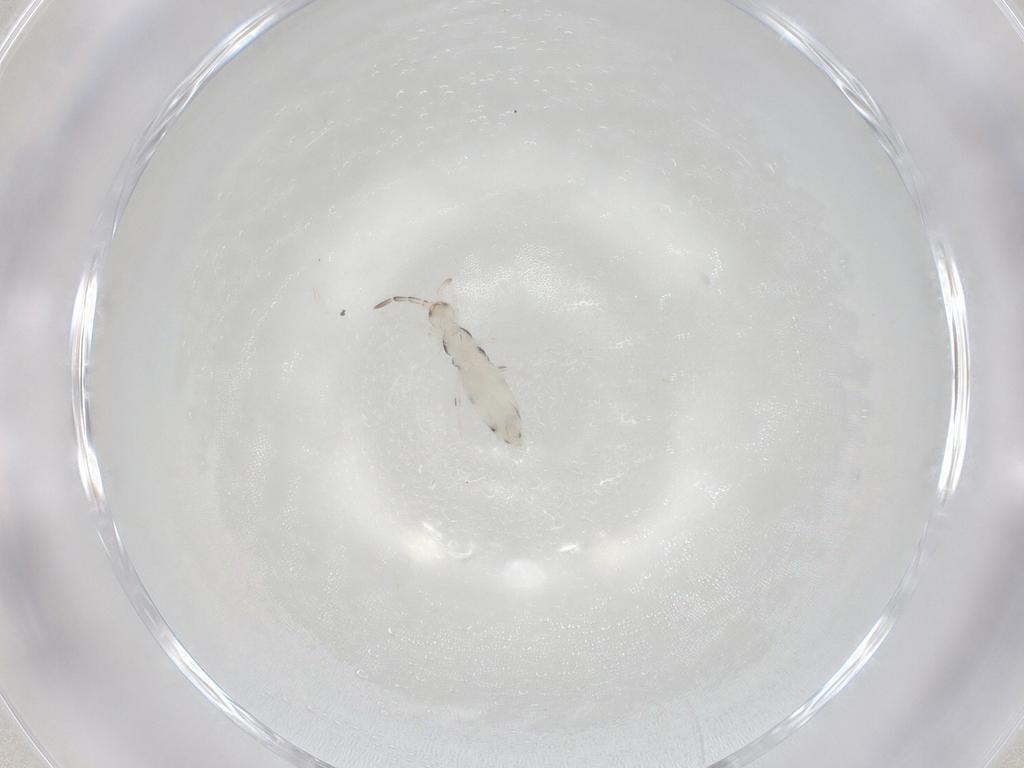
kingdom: Animalia
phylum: Arthropoda
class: Collembola
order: Entomobryomorpha
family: Entomobryidae
